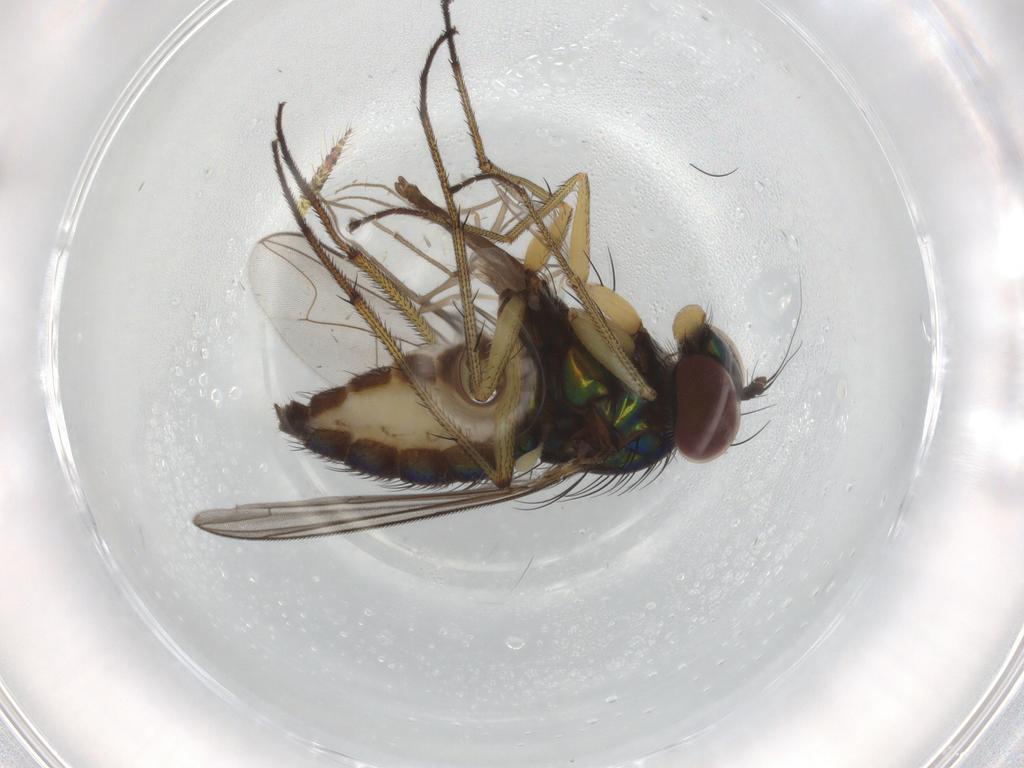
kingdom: Animalia
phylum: Arthropoda
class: Insecta
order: Diptera
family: Dolichopodidae
